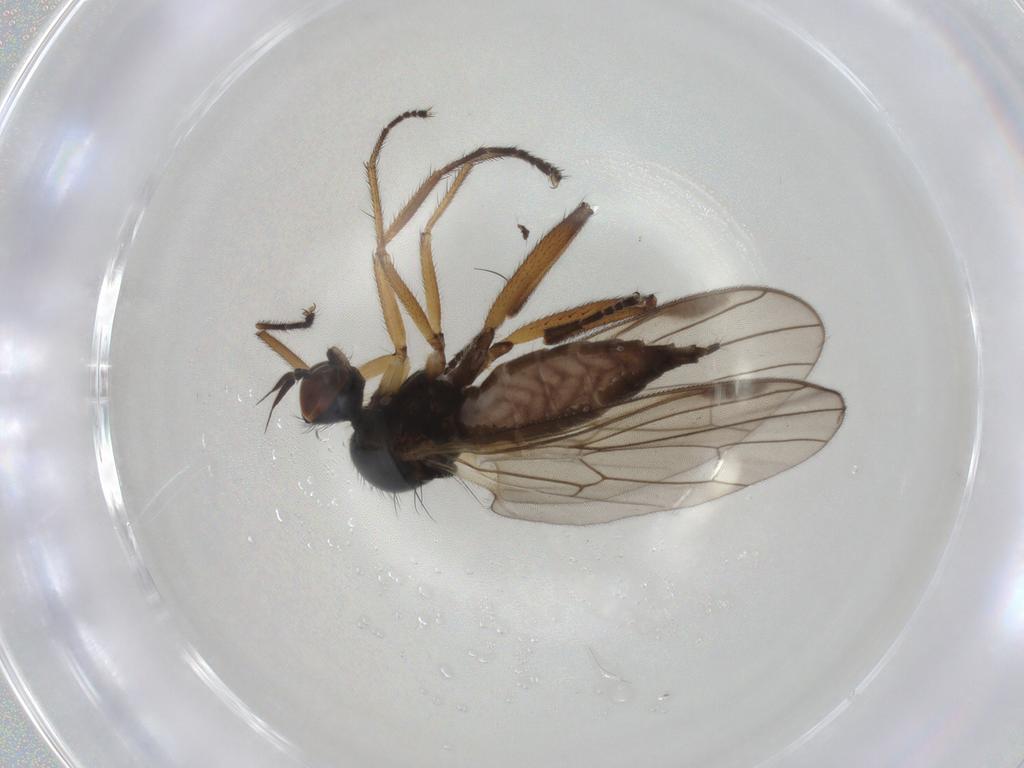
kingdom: Animalia
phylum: Arthropoda
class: Insecta
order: Diptera
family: Hybotidae
